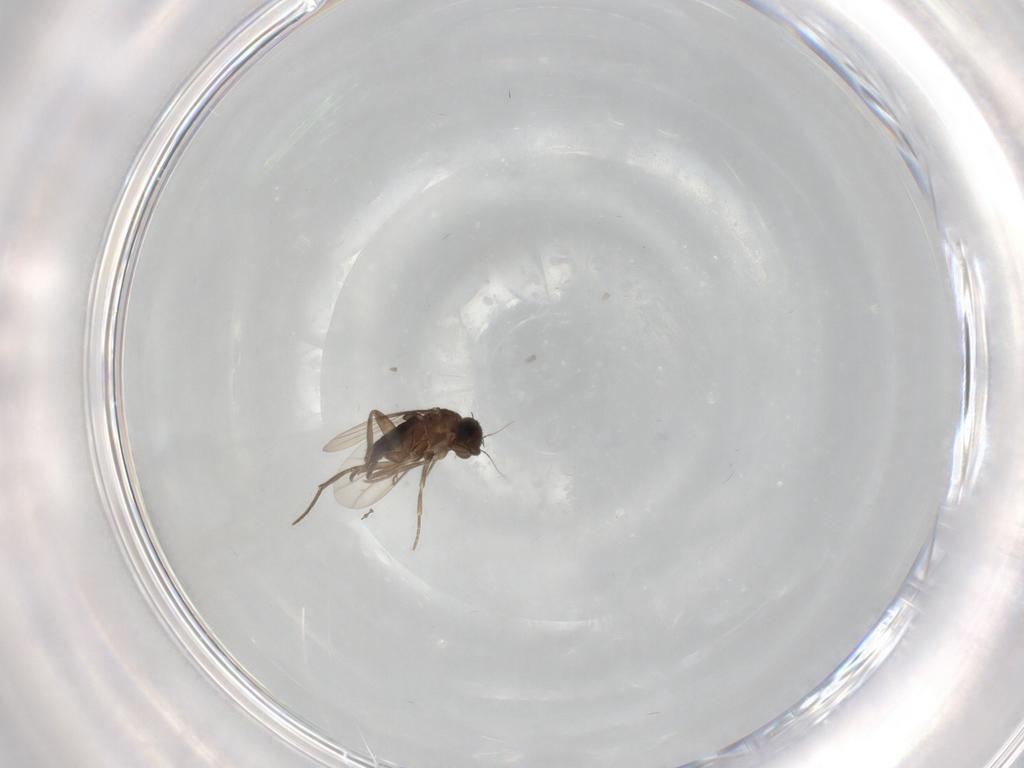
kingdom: Animalia
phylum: Arthropoda
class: Insecta
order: Diptera
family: Phoridae
